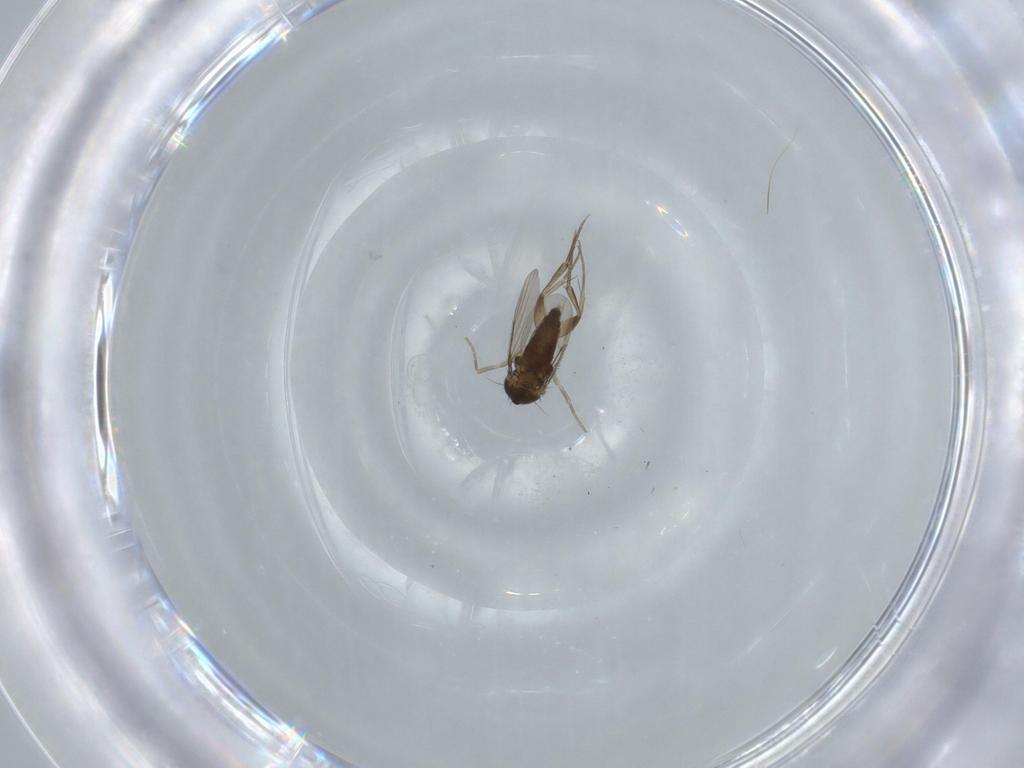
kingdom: Animalia
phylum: Arthropoda
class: Insecta
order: Diptera
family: Phoridae
